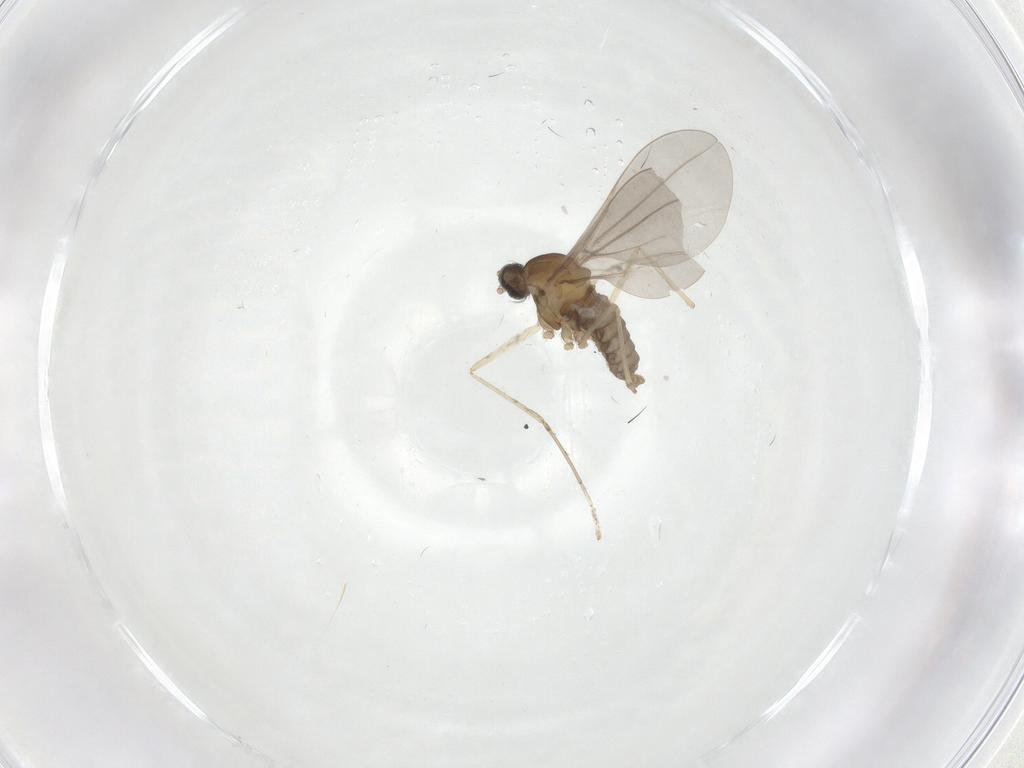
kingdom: Animalia
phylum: Arthropoda
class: Insecta
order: Diptera
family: Cecidomyiidae
